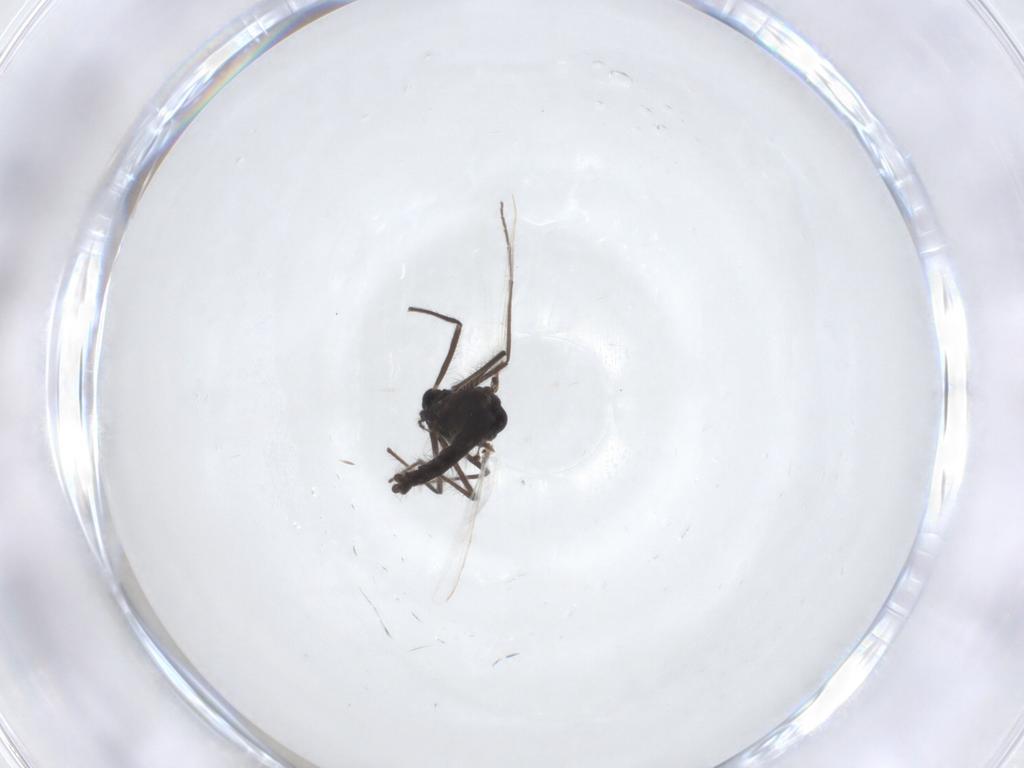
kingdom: Animalia
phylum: Arthropoda
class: Insecta
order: Diptera
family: Chironomidae
